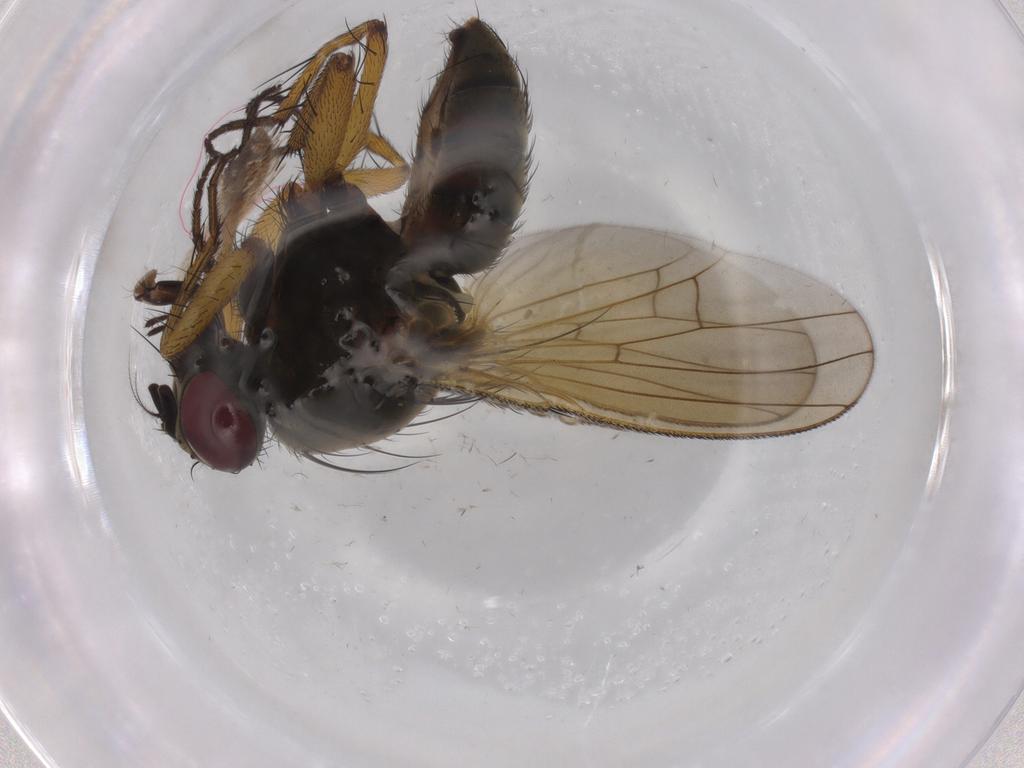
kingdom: Animalia
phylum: Arthropoda
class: Insecta
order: Diptera
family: Muscidae
